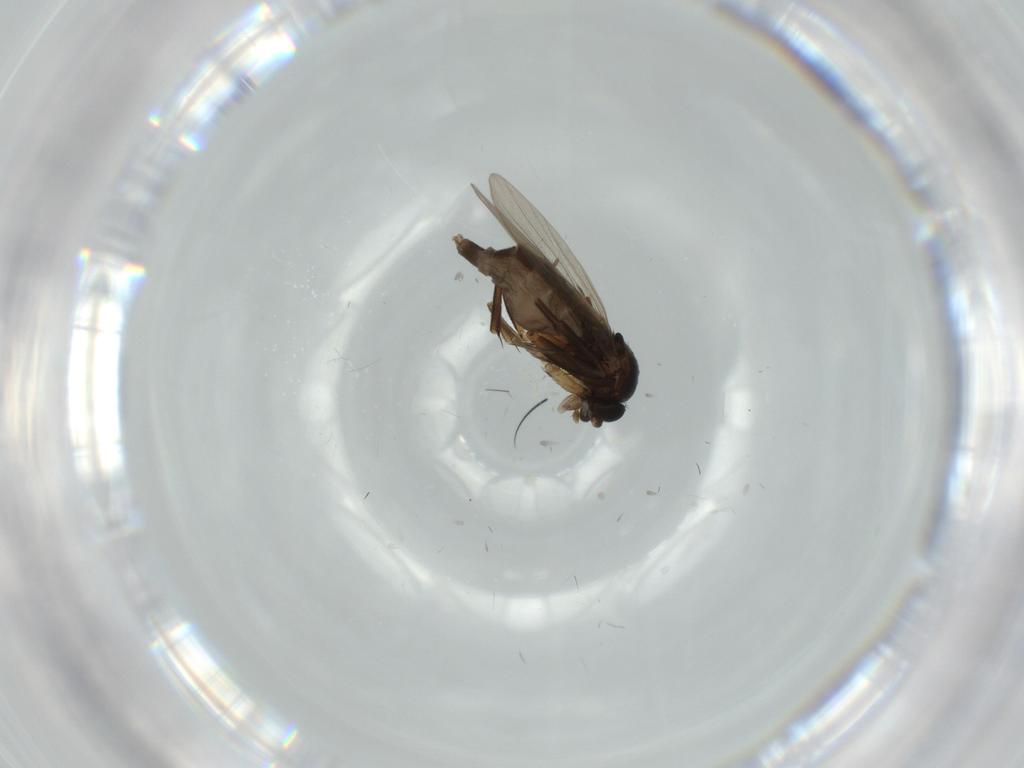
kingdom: Animalia
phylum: Arthropoda
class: Insecta
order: Diptera
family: Phoridae
